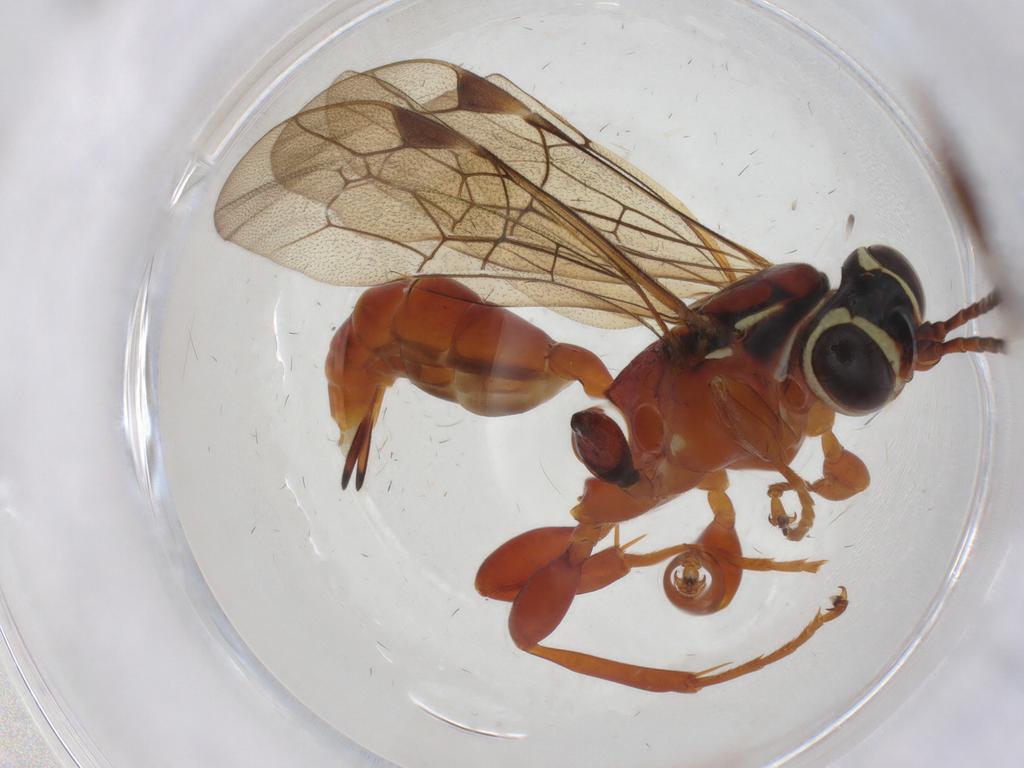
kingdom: Animalia
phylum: Arthropoda
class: Insecta
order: Hymenoptera
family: Ichneumonidae
